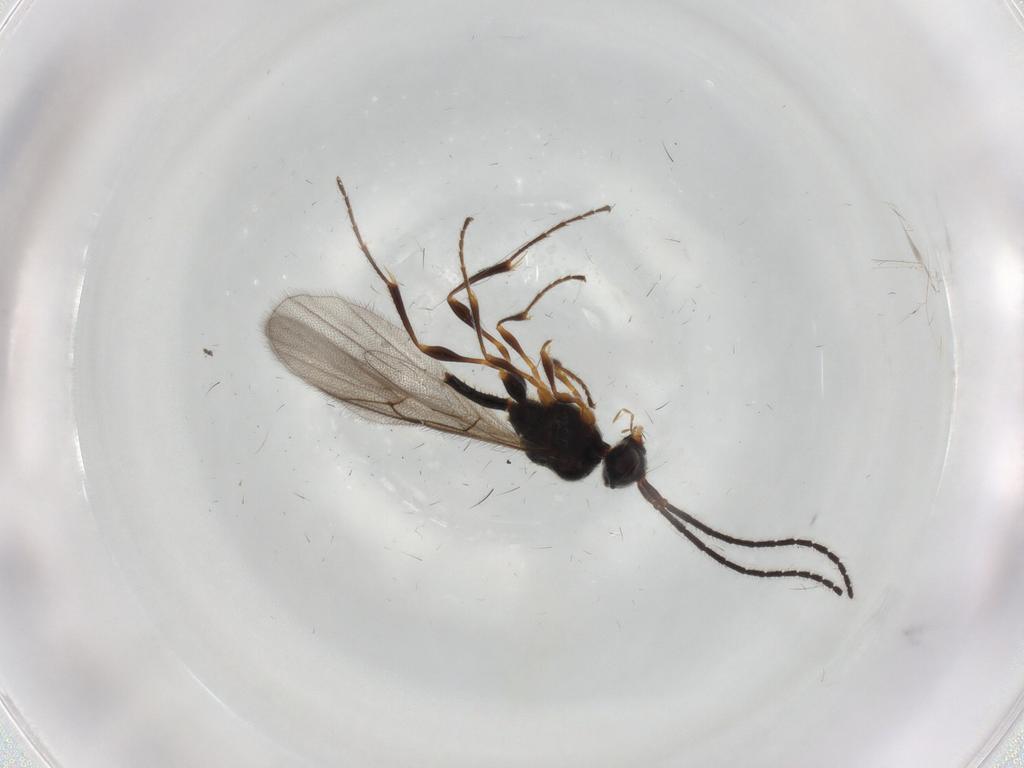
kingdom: Animalia
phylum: Arthropoda
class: Insecta
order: Hymenoptera
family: Diapriidae
